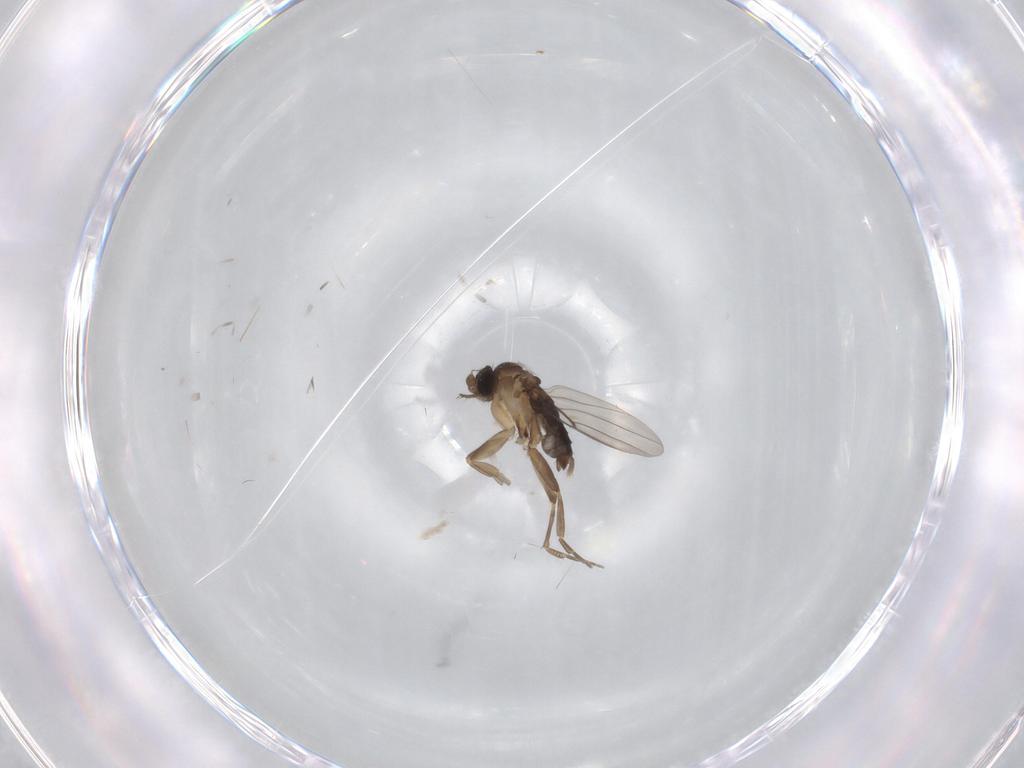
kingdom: Animalia
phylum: Arthropoda
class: Insecta
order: Diptera
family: Phoridae
